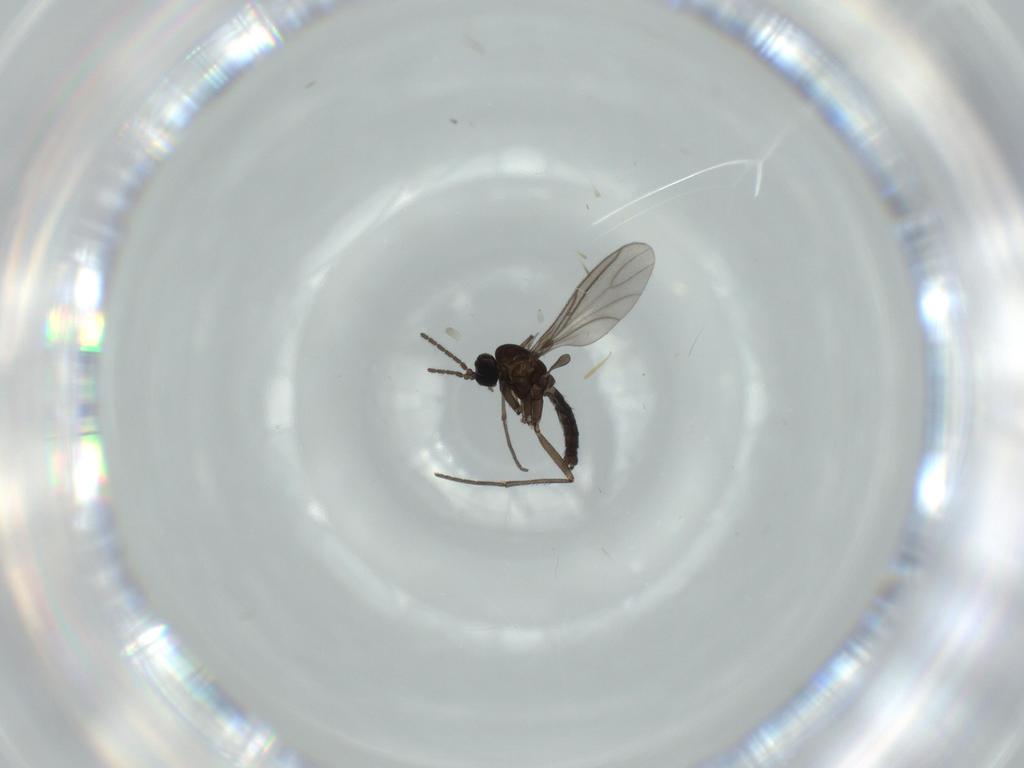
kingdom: Animalia
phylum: Arthropoda
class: Insecta
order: Diptera
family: Sciaridae
